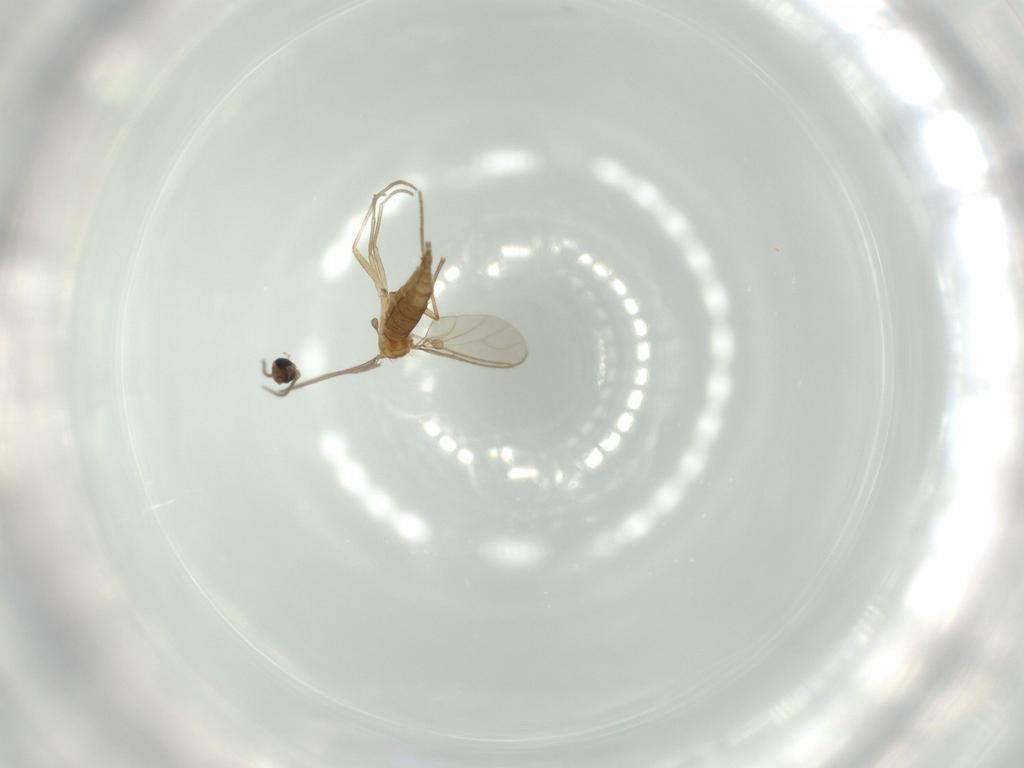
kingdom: Animalia
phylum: Arthropoda
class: Insecta
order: Diptera
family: Sciaridae
